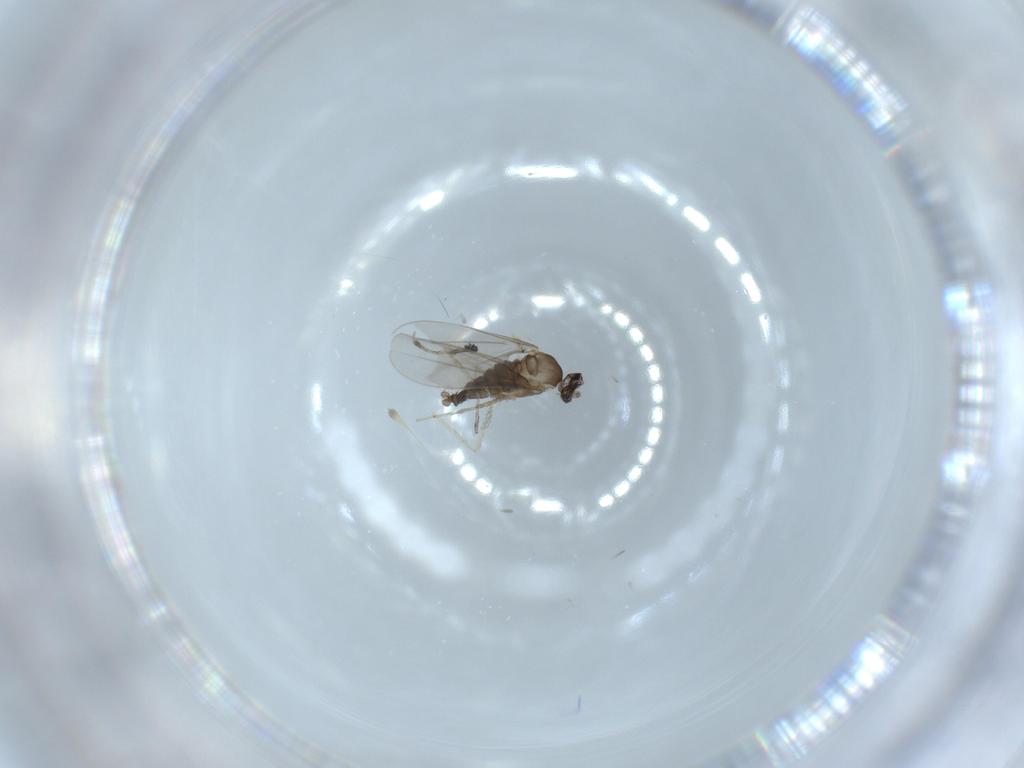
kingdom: Animalia
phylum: Arthropoda
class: Insecta
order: Diptera
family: Cecidomyiidae
